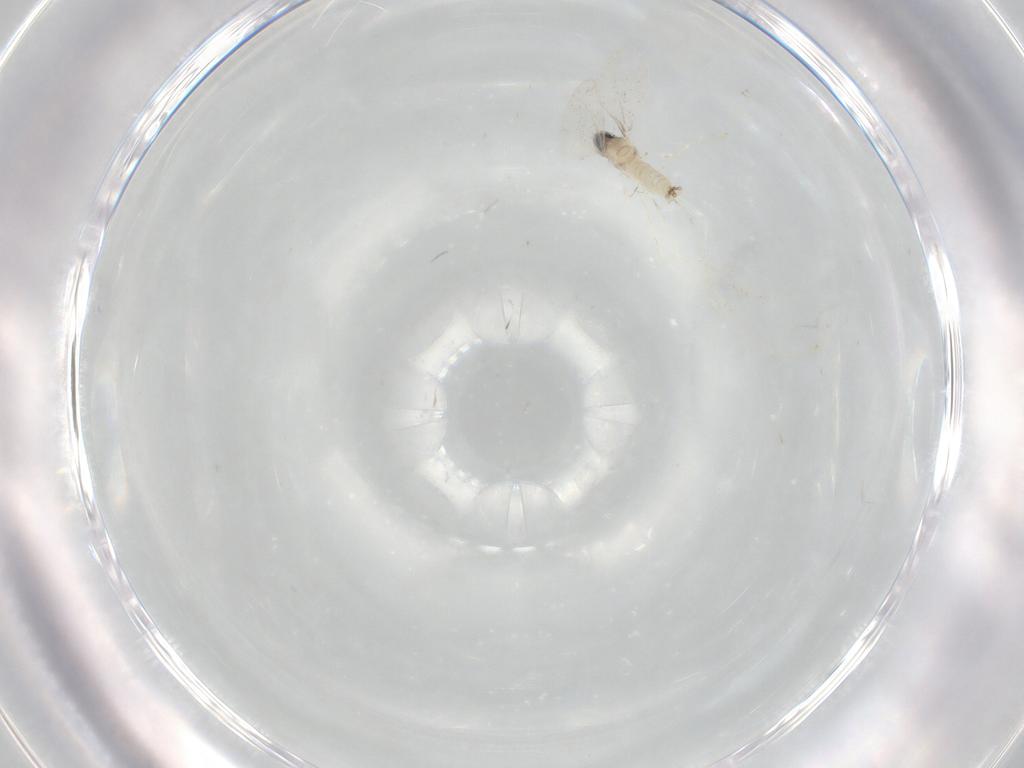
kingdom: Animalia
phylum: Arthropoda
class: Insecta
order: Diptera
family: Cecidomyiidae
